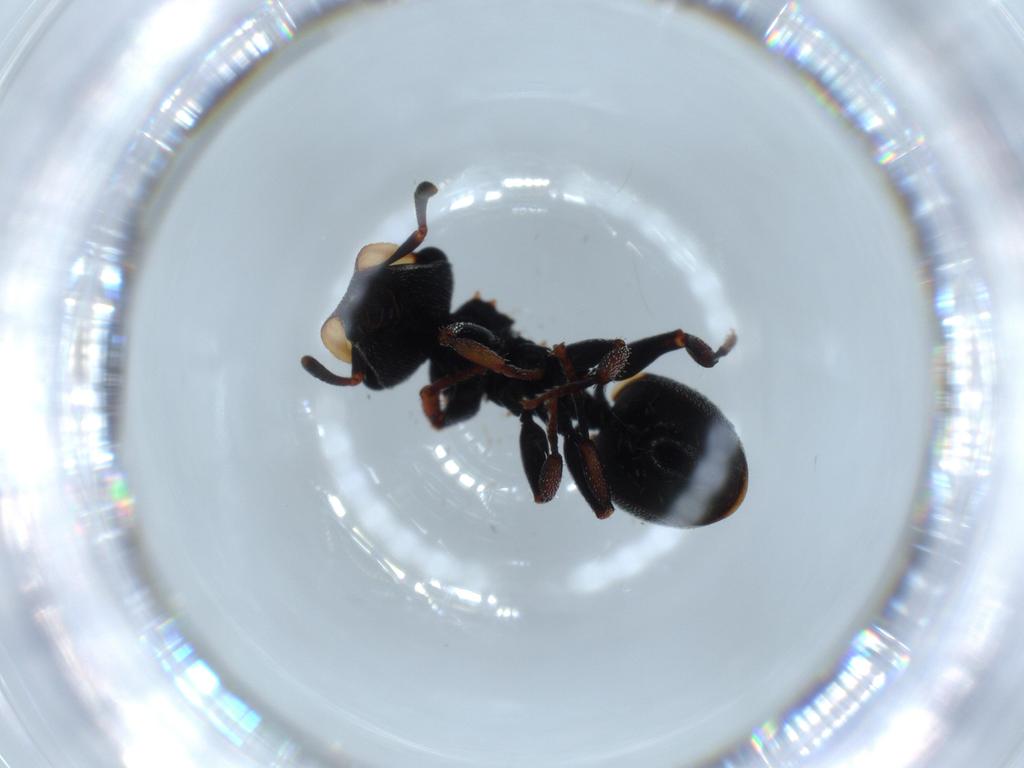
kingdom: Animalia
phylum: Arthropoda
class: Insecta
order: Hymenoptera
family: Formicidae
